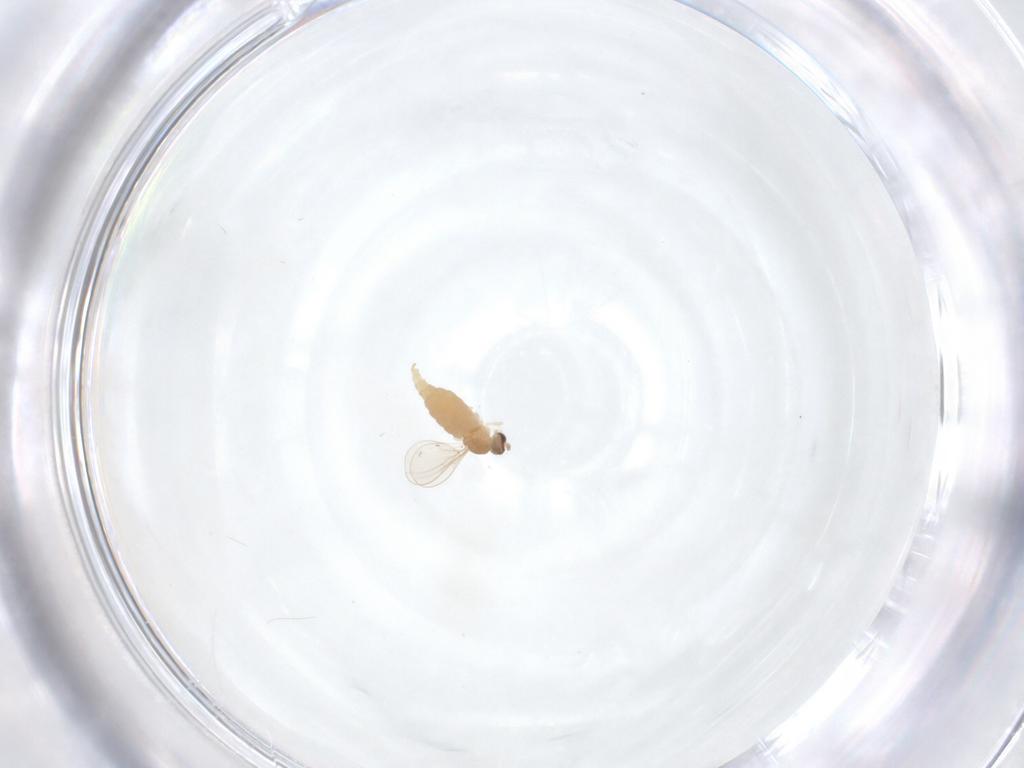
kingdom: Animalia
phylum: Arthropoda
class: Insecta
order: Diptera
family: Cecidomyiidae
